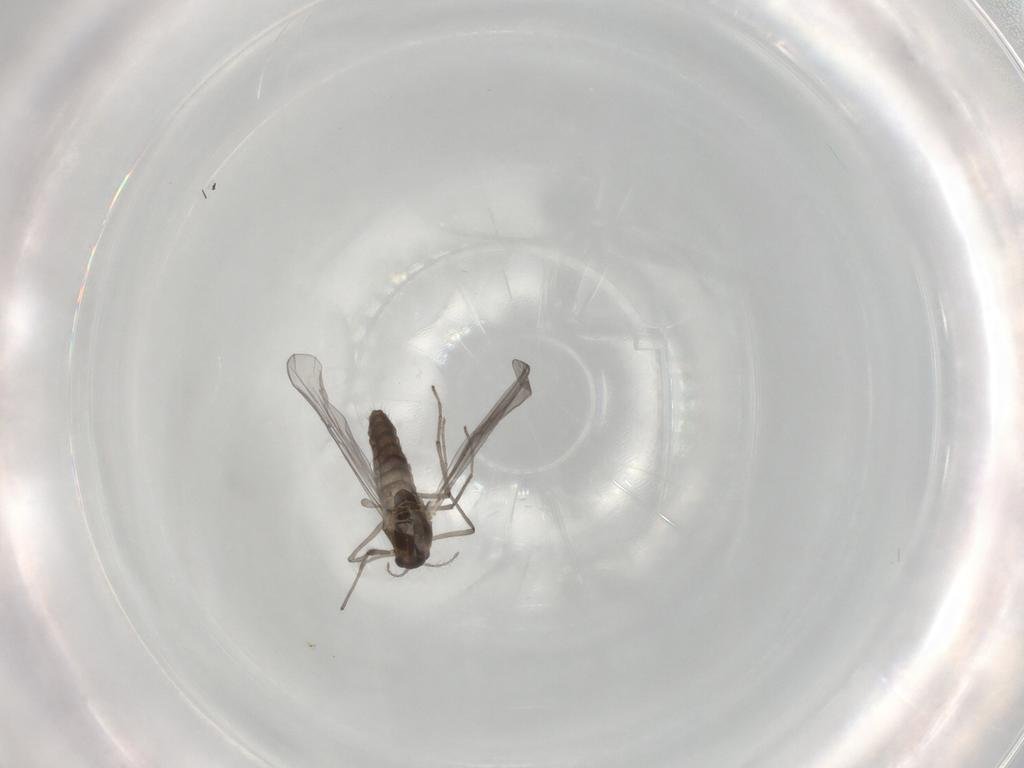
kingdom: Animalia
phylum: Arthropoda
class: Insecta
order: Diptera
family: Chironomidae
